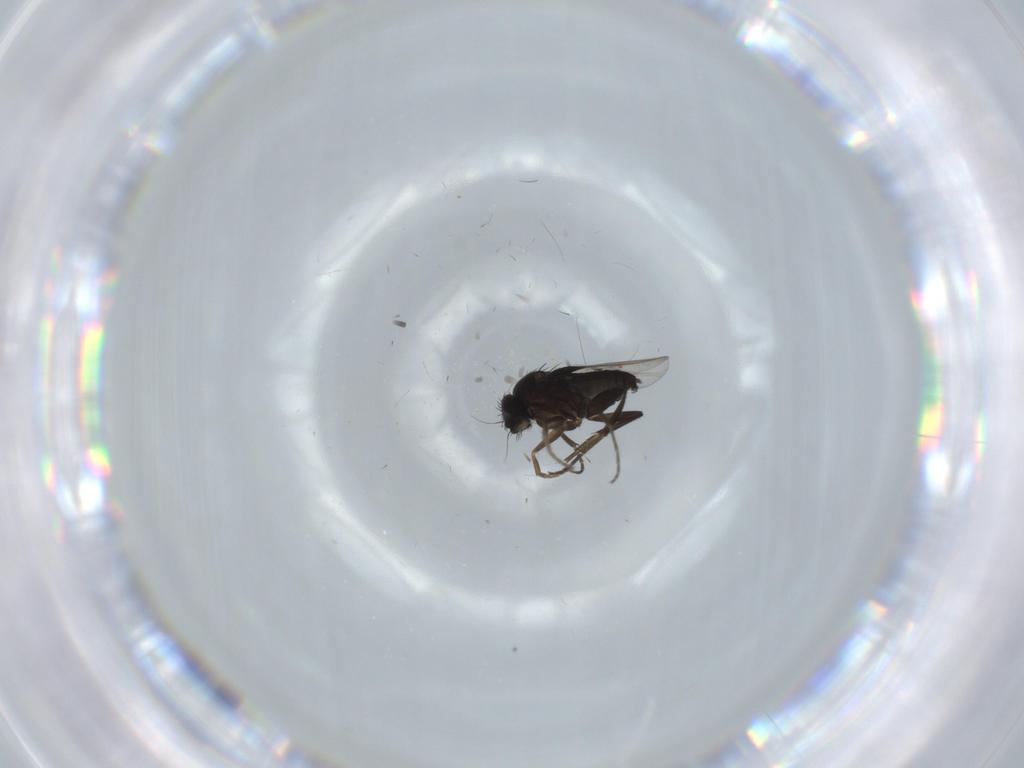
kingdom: Animalia
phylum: Arthropoda
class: Insecta
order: Diptera
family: Phoridae
